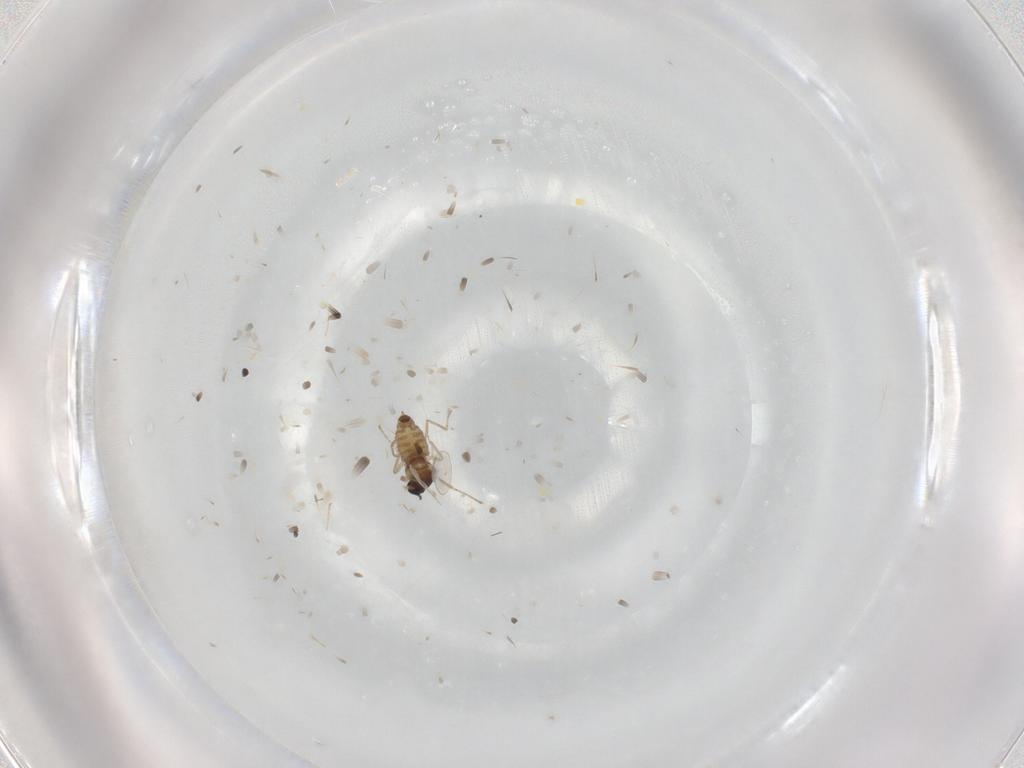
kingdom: Animalia
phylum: Arthropoda
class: Insecta
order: Diptera
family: Cecidomyiidae
